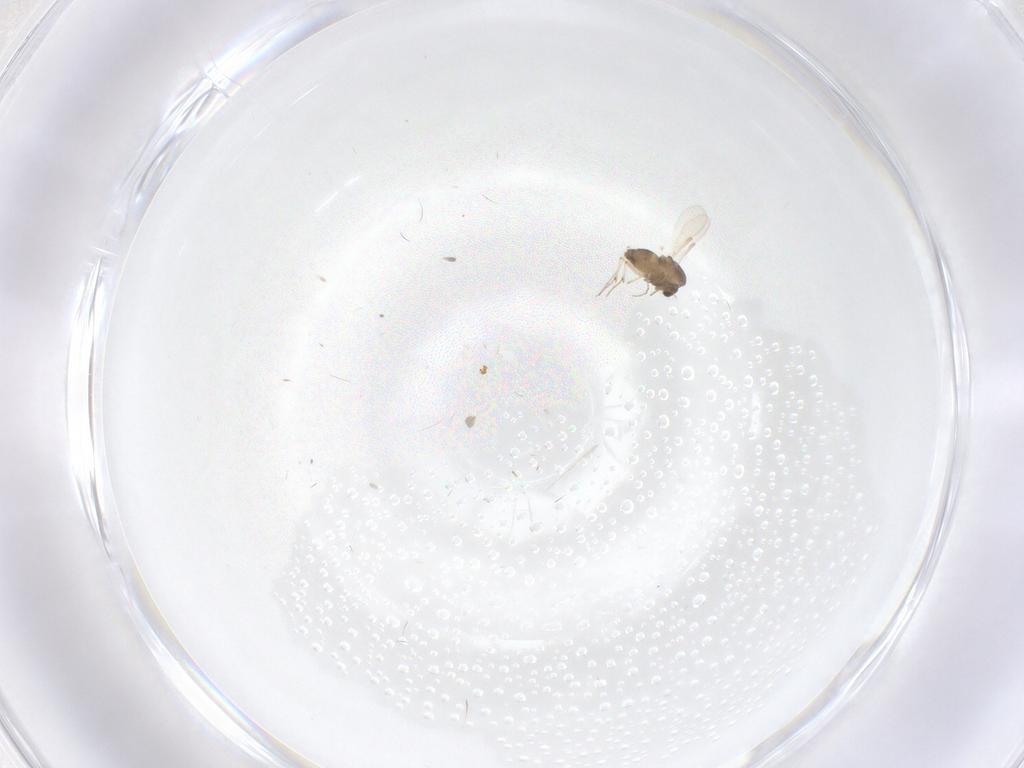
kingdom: Animalia
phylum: Arthropoda
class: Insecta
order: Diptera
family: Chironomidae
